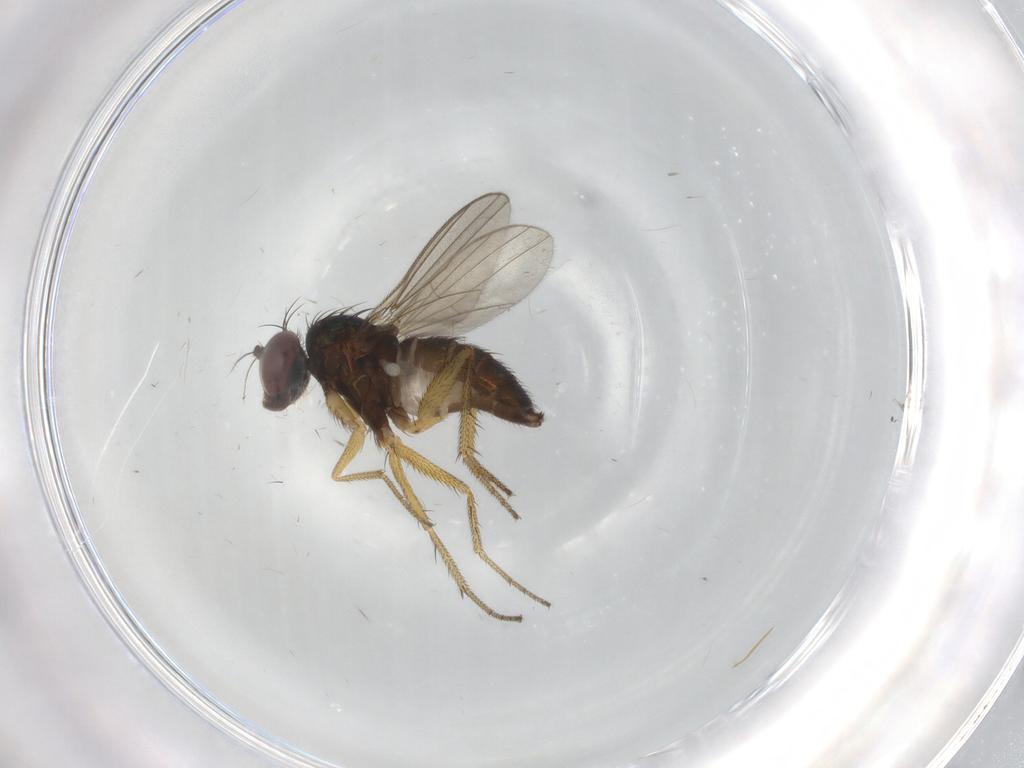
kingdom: Animalia
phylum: Arthropoda
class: Insecta
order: Diptera
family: Chironomidae
